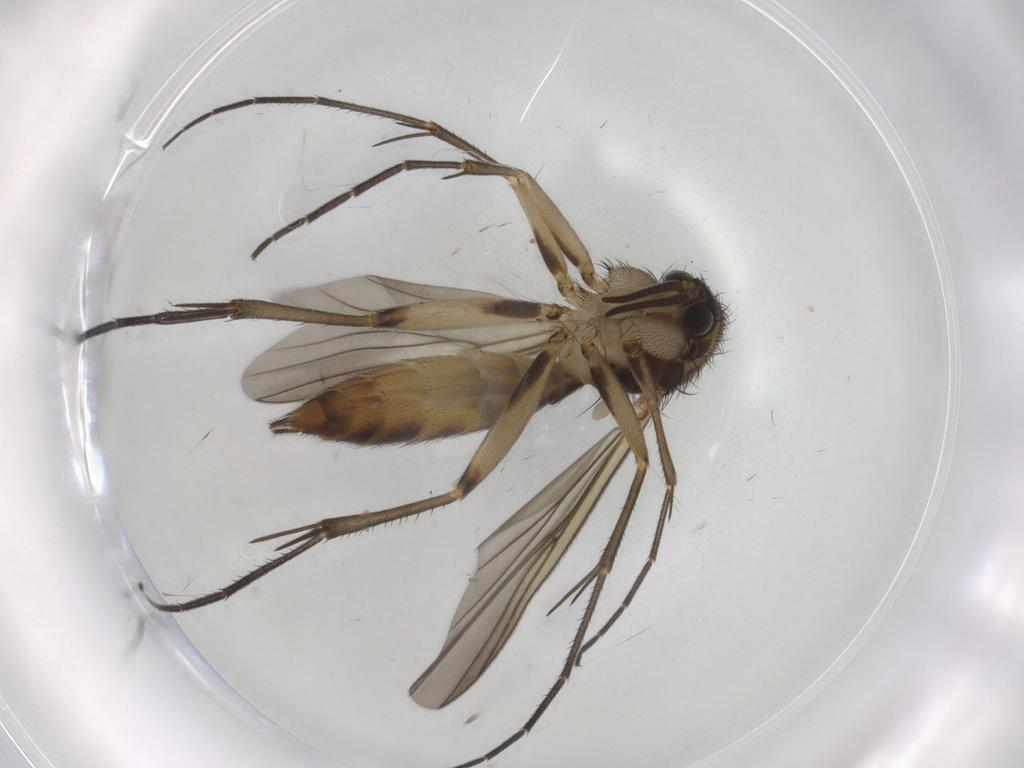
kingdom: Animalia
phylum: Arthropoda
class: Insecta
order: Diptera
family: Mycetophilidae
